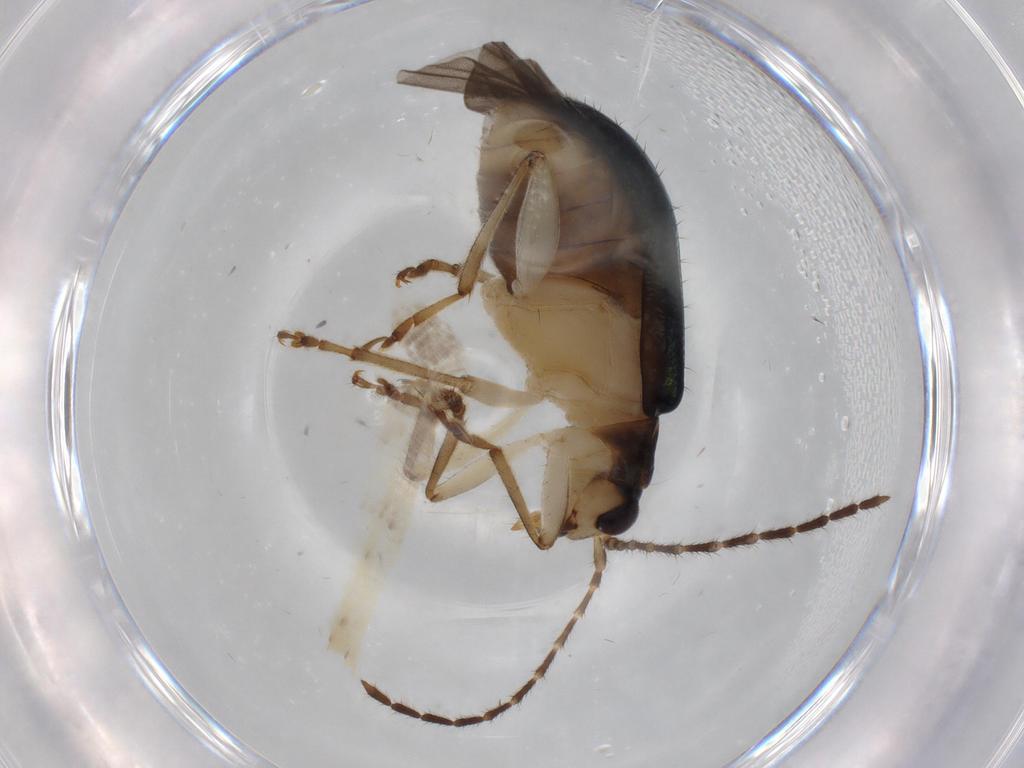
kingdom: Animalia
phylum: Arthropoda
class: Insecta
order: Coleoptera
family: Chrysomelidae
